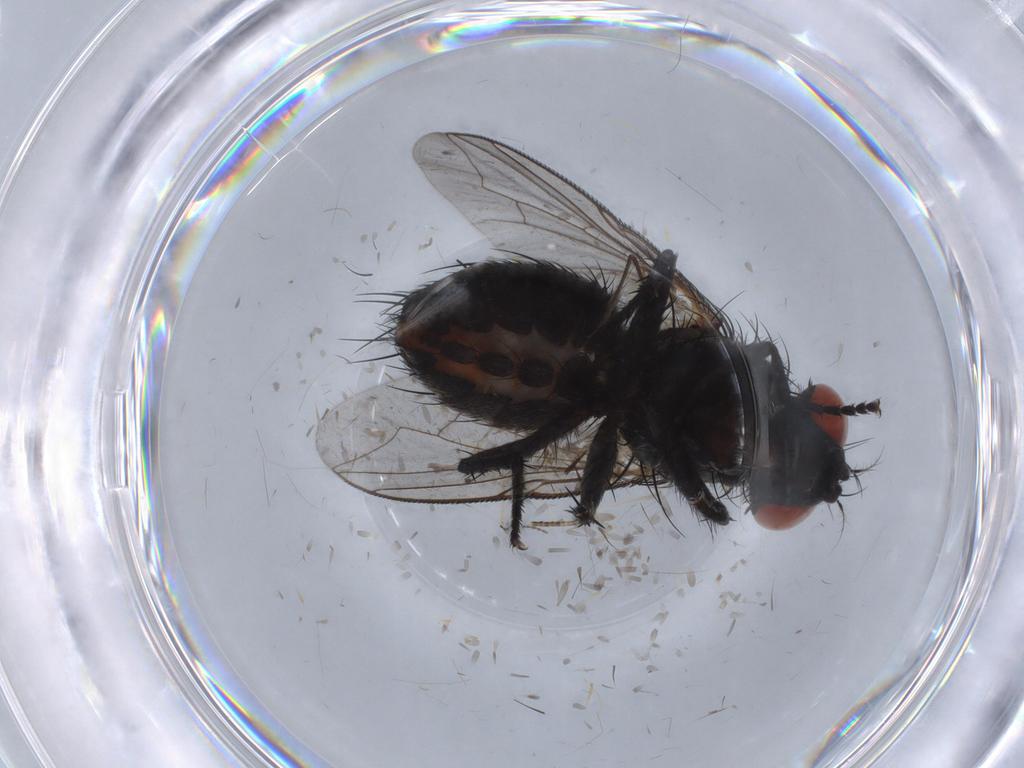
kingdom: Animalia
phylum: Arthropoda
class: Insecta
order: Diptera
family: Sarcophagidae
